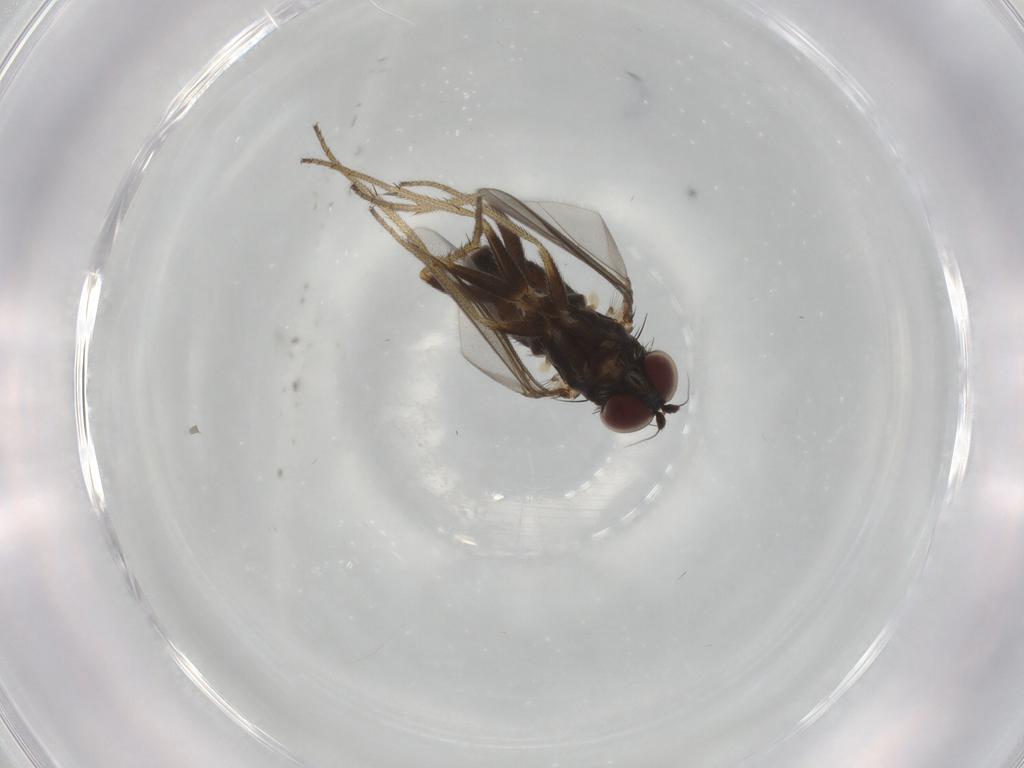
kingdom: Animalia
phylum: Arthropoda
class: Insecta
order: Diptera
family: Cecidomyiidae
